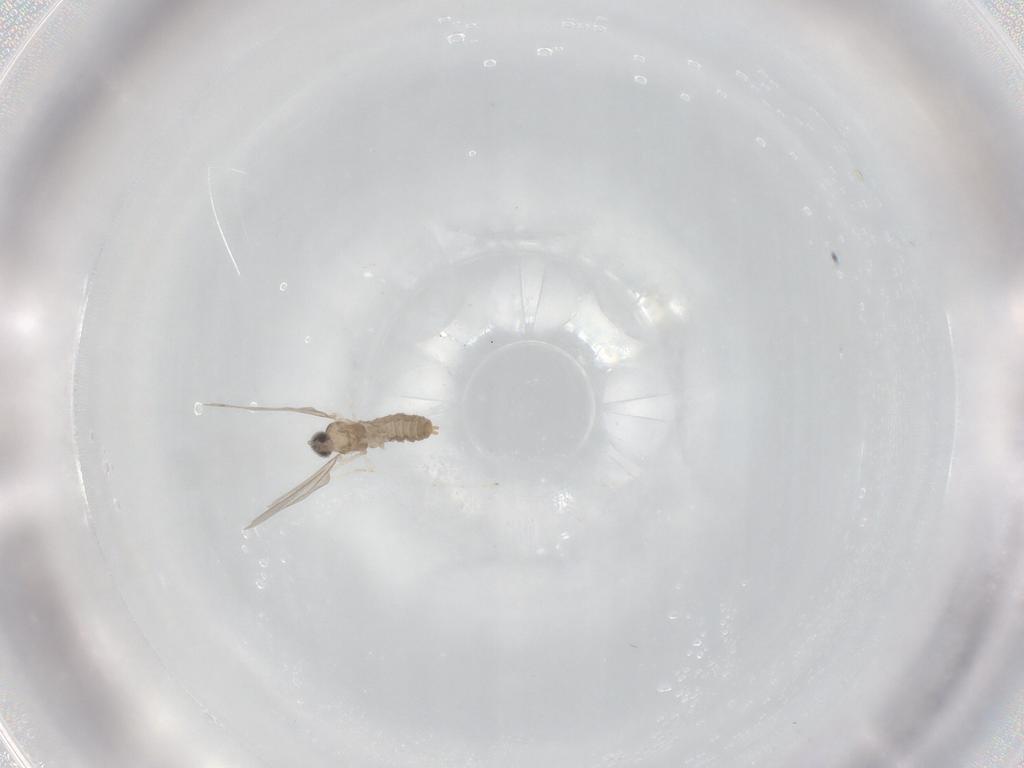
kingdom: Animalia
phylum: Arthropoda
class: Insecta
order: Diptera
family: Cecidomyiidae
